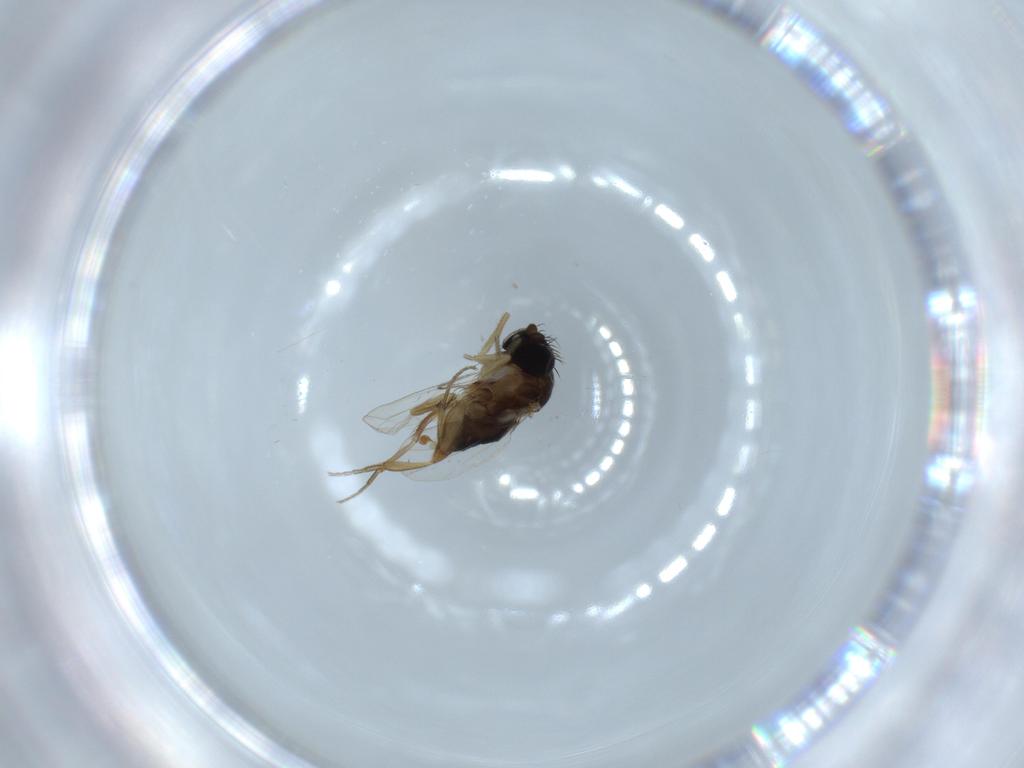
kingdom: Animalia
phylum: Arthropoda
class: Insecta
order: Diptera
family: Phoridae
